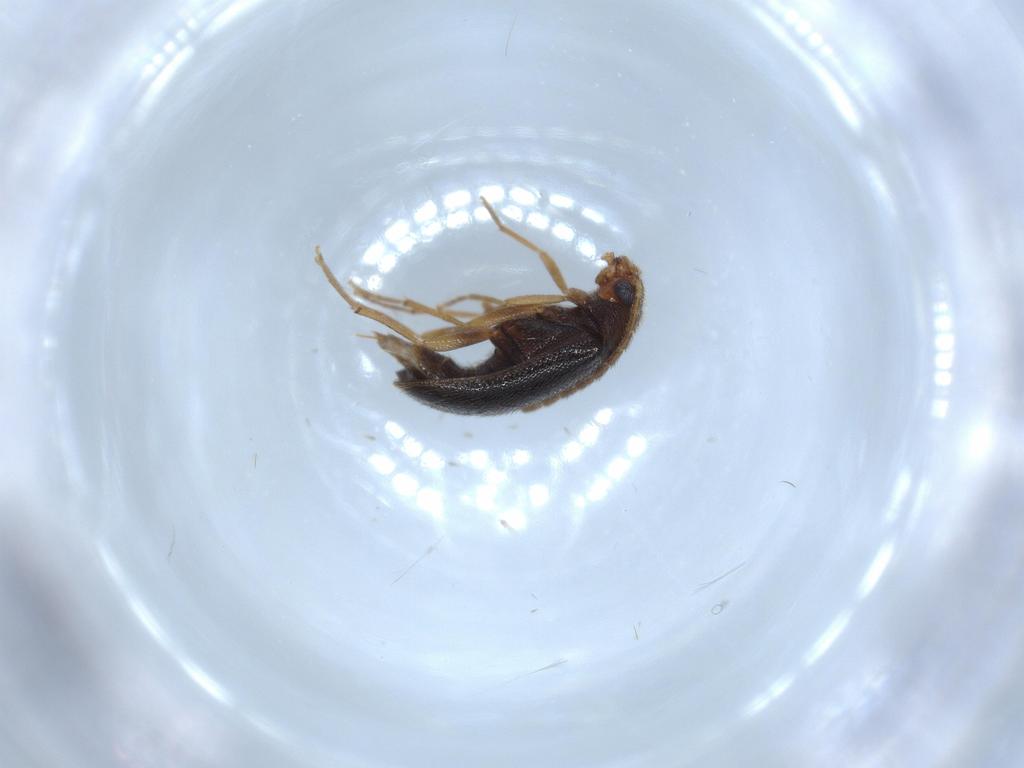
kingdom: Animalia
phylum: Arthropoda
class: Insecta
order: Coleoptera
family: Melandryidae
